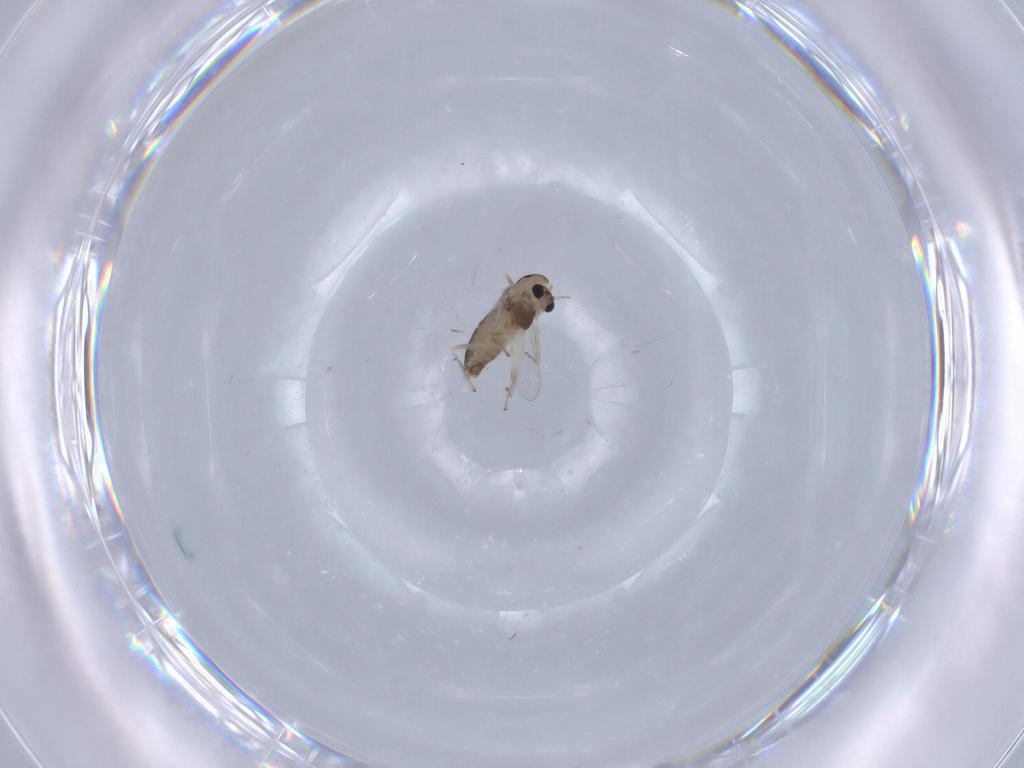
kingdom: Animalia
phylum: Arthropoda
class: Insecta
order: Diptera
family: Chironomidae
